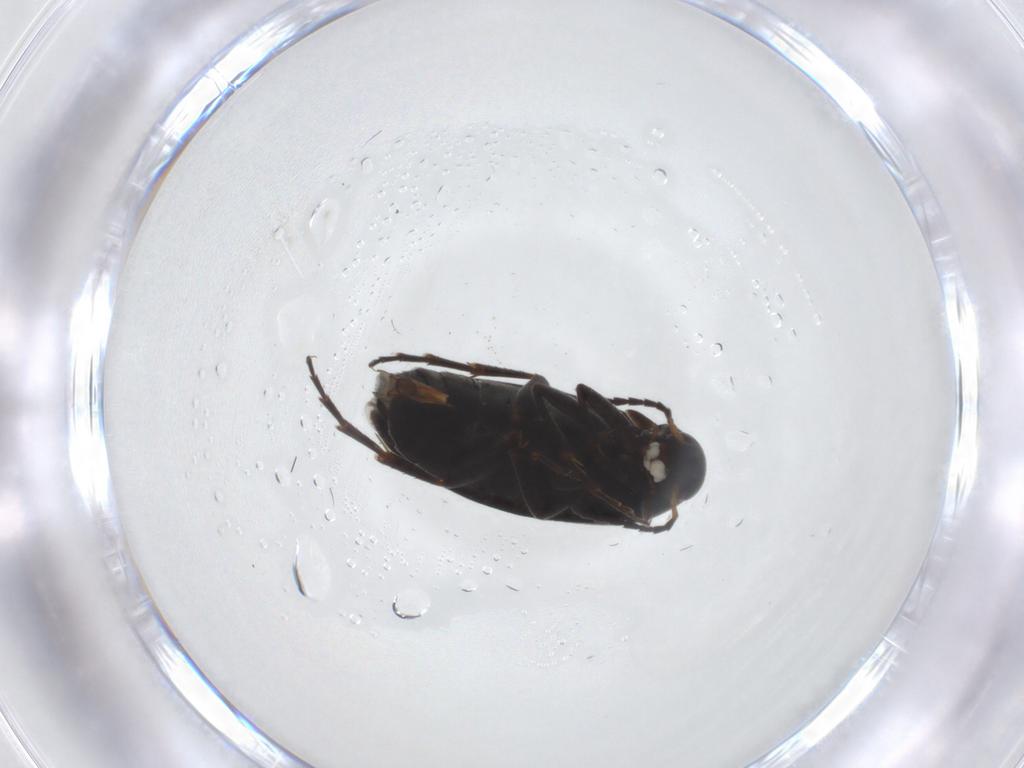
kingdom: Animalia
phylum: Arthropoda
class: Insecta
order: Coleoptera
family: Scraptiidae
